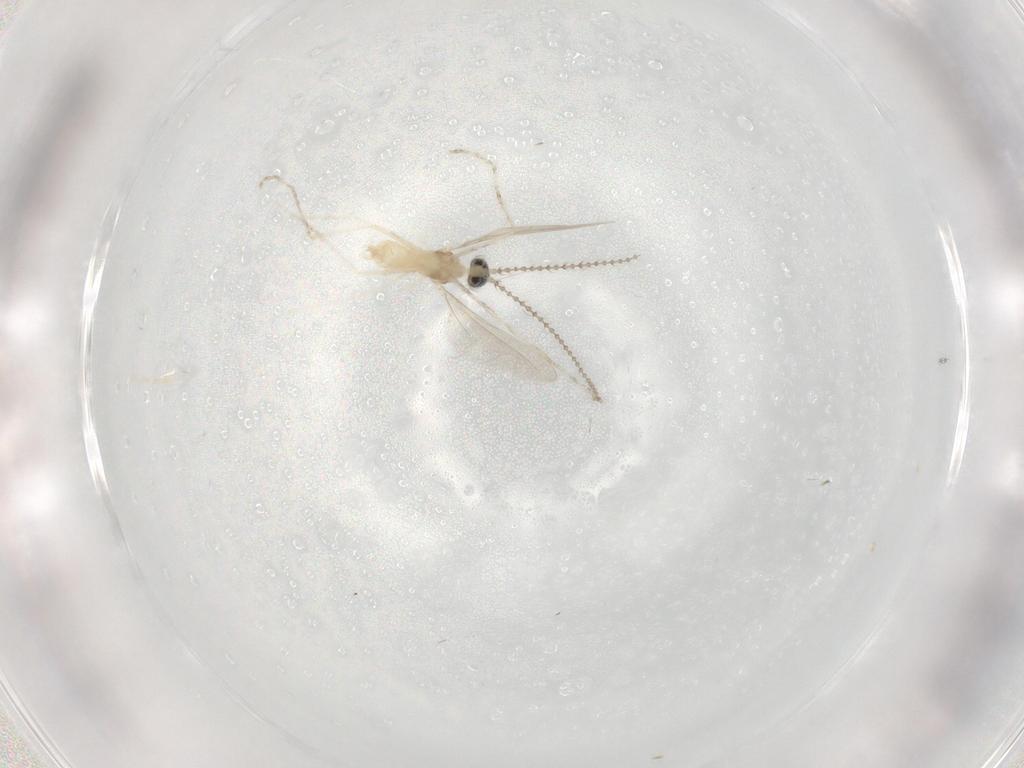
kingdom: Animalia
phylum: Arthropoda
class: Insecta
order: Diptera
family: Cecidomyiidae
